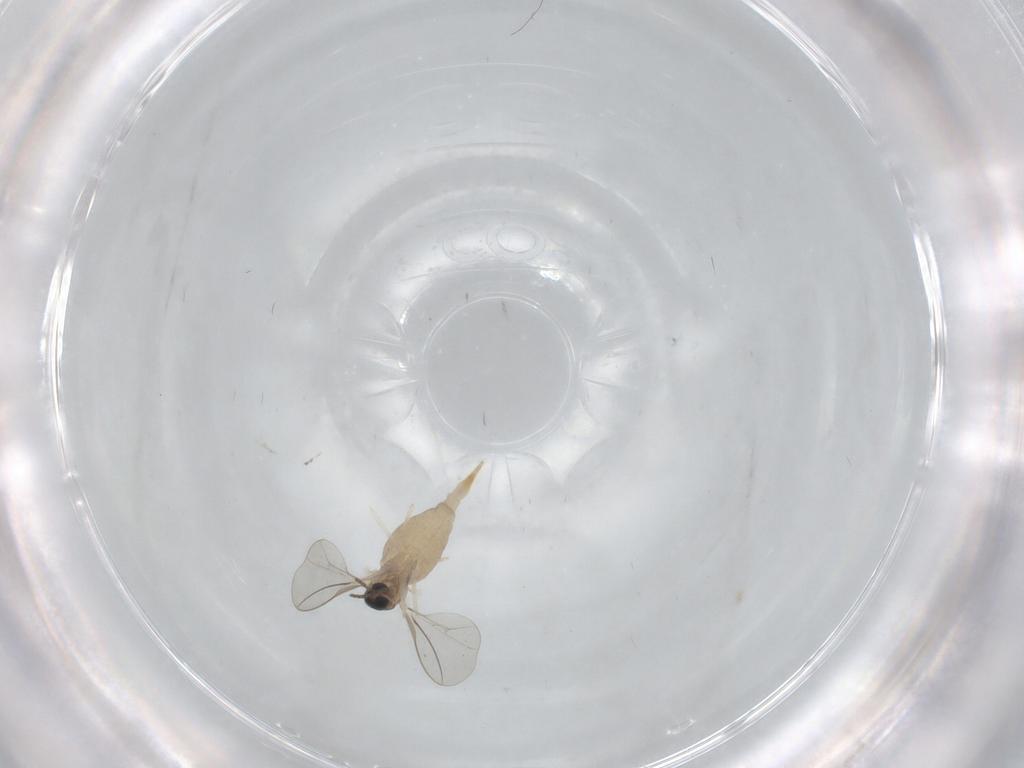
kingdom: Animalia
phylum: Arthropoda
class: Insecta
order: Diptera
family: Cecidomyiidae
